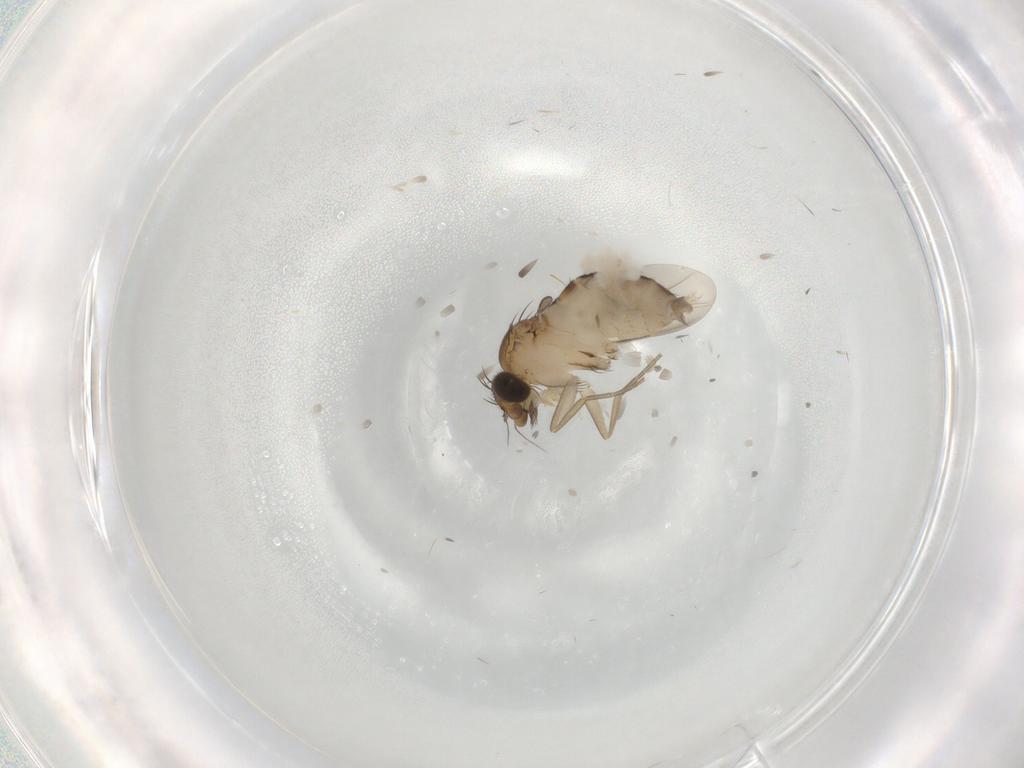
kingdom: Animalia
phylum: Arthropoda
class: Insecta
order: Diptera
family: Phoridae
